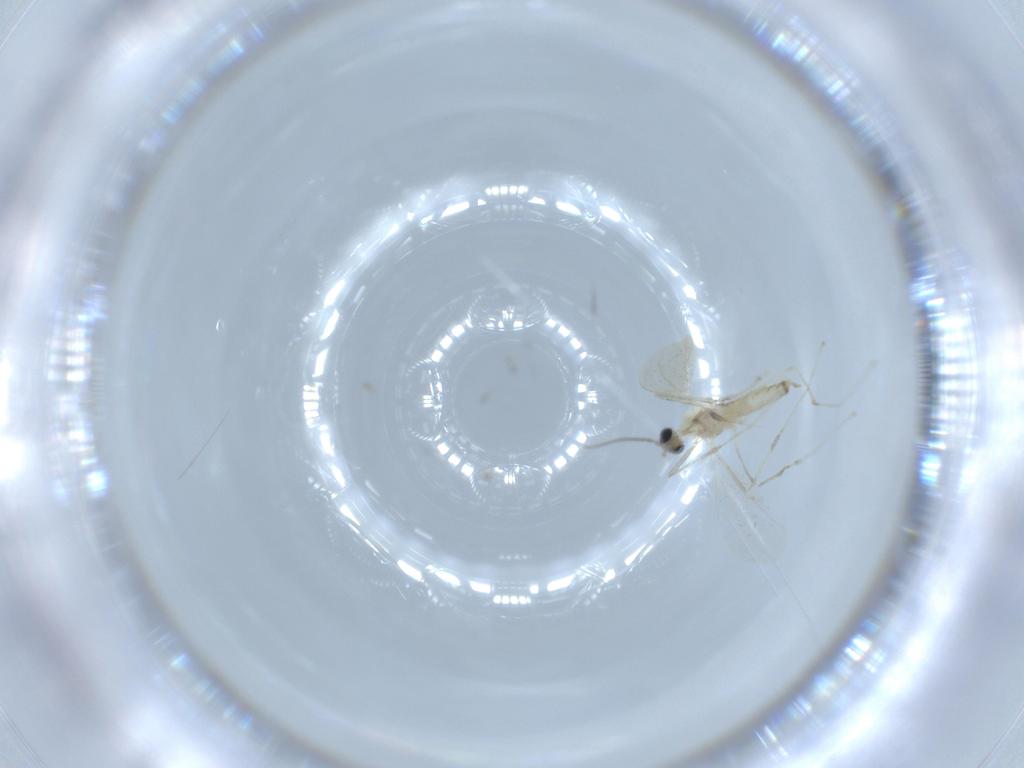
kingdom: Animalia
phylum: Arthropoda
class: Insecta
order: Diptera
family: Cecidomyiidae
